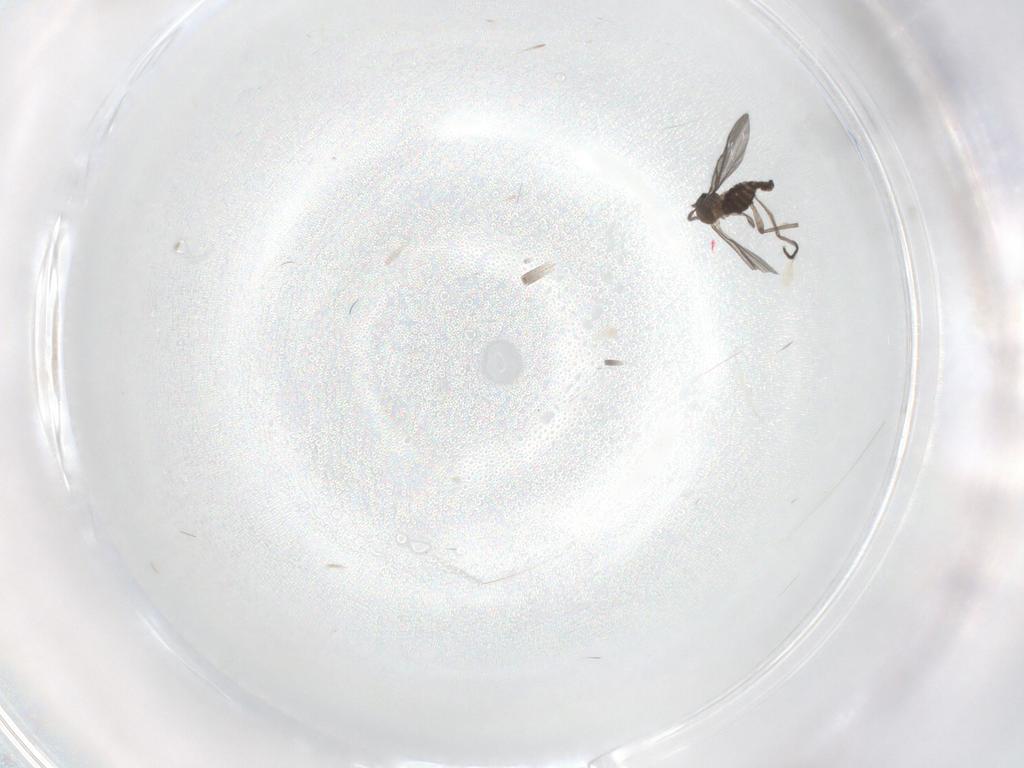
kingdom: Animalia
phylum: Arthropoda
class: Insecta
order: Diptera
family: Sciaridae
